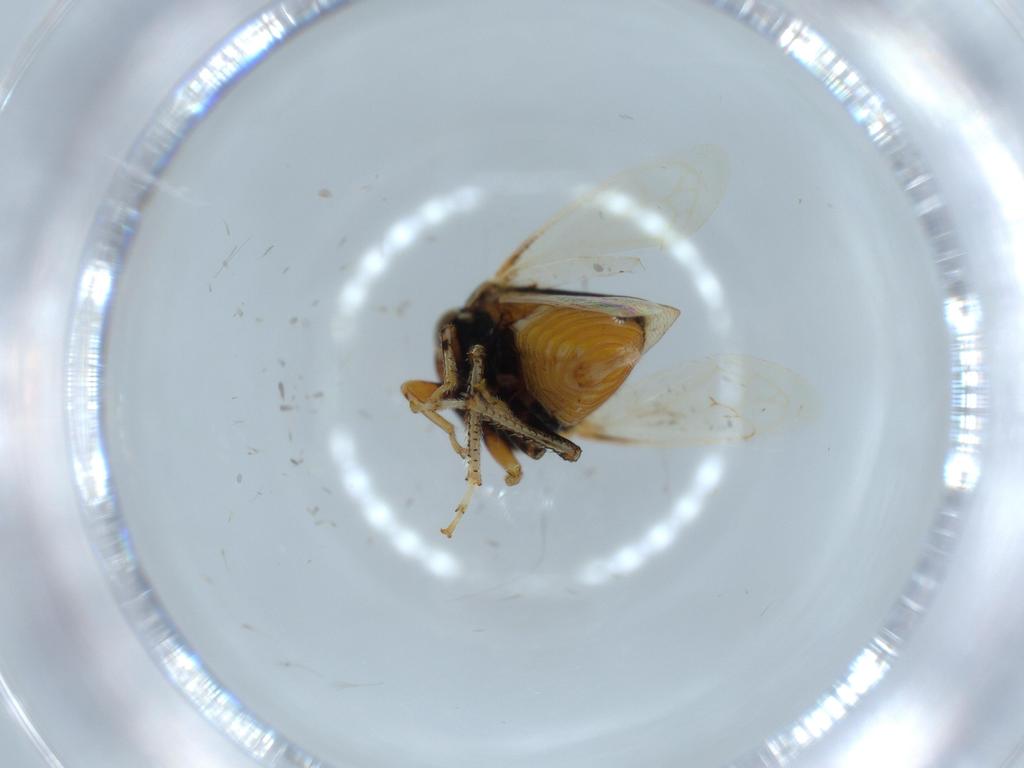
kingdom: Animalia
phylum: Arthropoda
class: Insecta
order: Hemiptera
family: Membracidae
